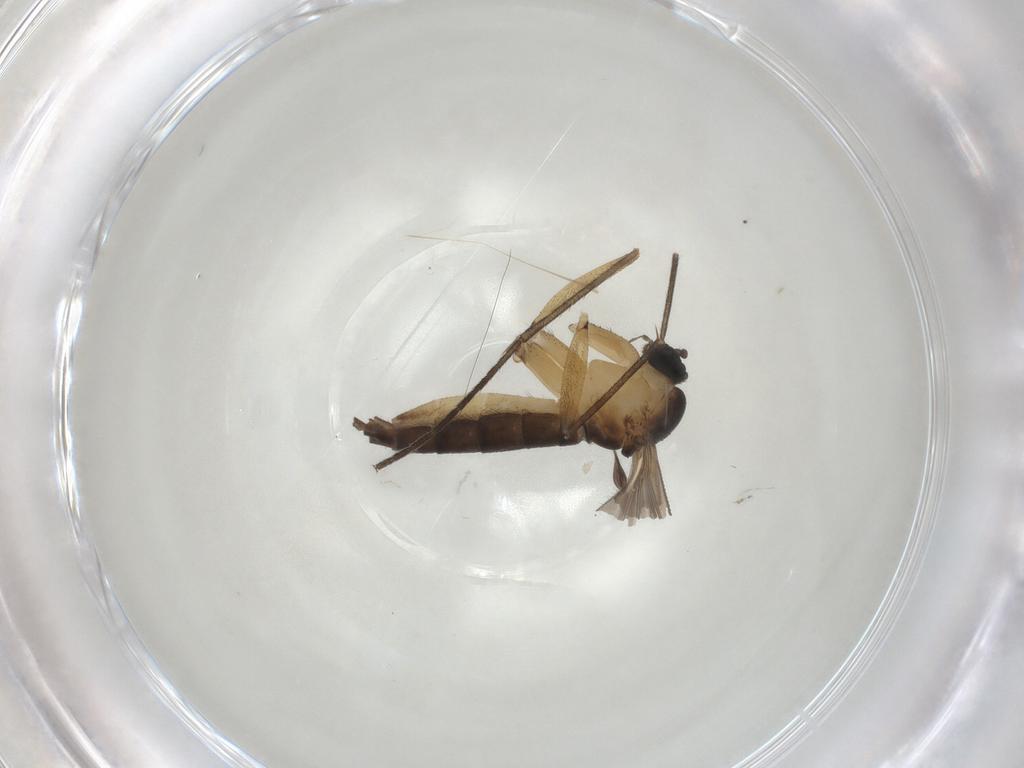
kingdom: Animalia
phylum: Arthropoda
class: Insecta
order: Diptera
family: Sciaridae
